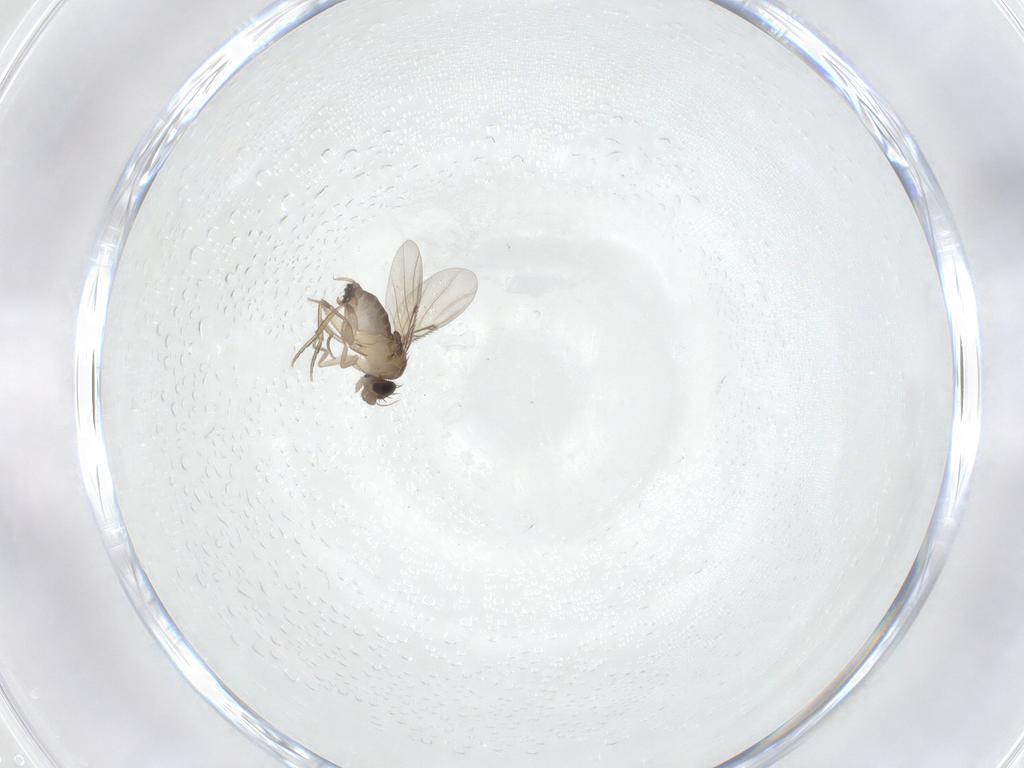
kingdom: Animalia
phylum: Arthropoda
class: Insecta
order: Diptera
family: Phoridae
